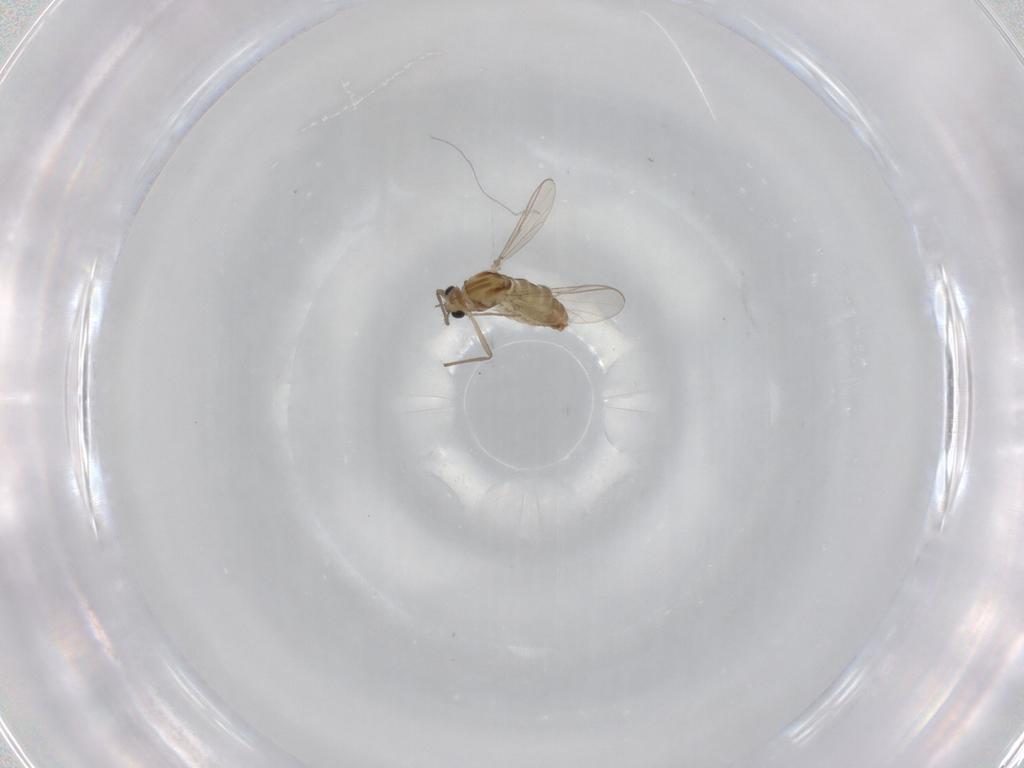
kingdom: Animalia
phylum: Arthropoda
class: Insecta
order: Diptera
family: Chironomidae
